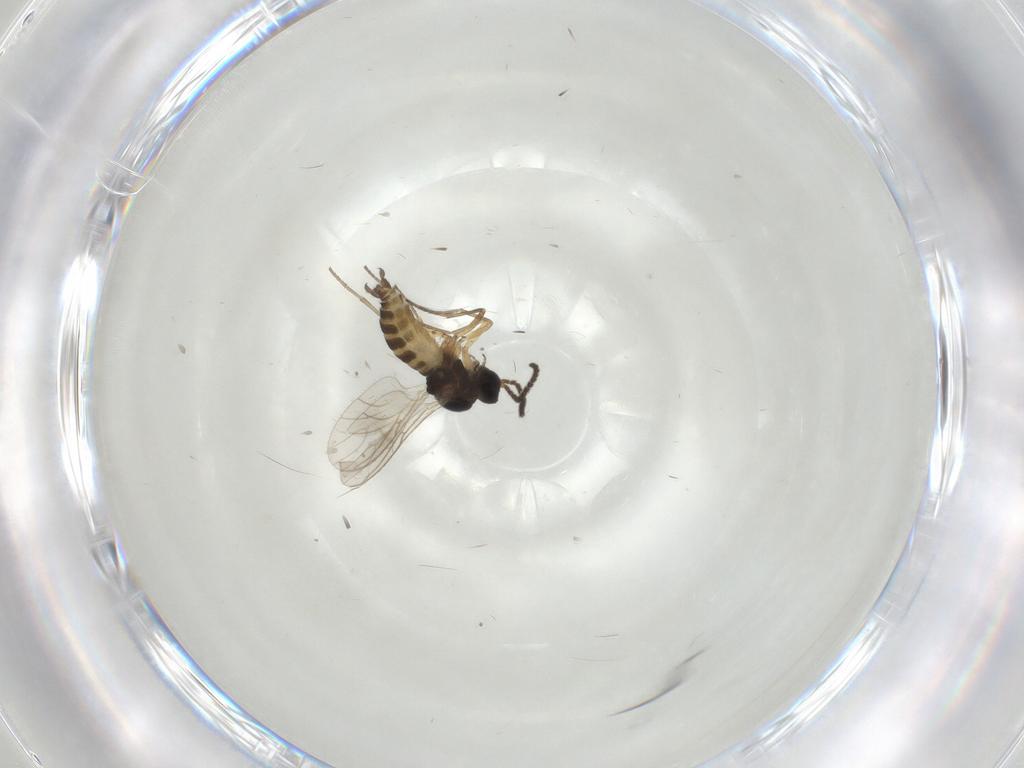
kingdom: Animalia
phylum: Arthropoda
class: Insecta
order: Diptera
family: Sciaridae
